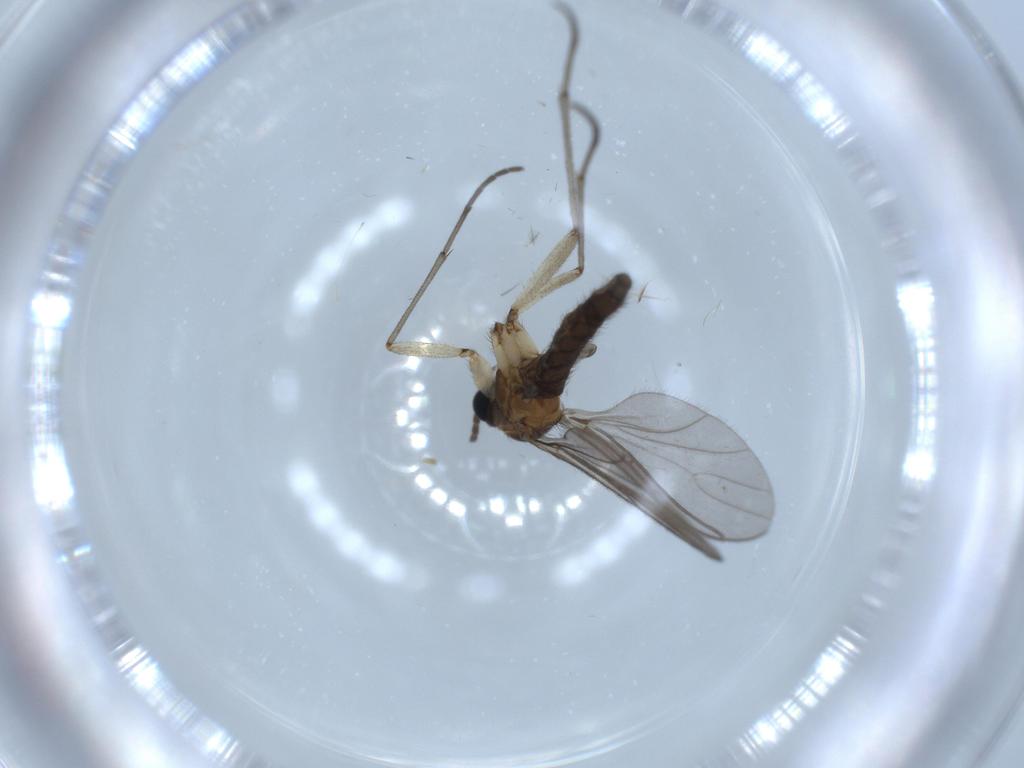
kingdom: Animalia
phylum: Arthropoda
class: Insecta
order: Diptera
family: Sciaridae
